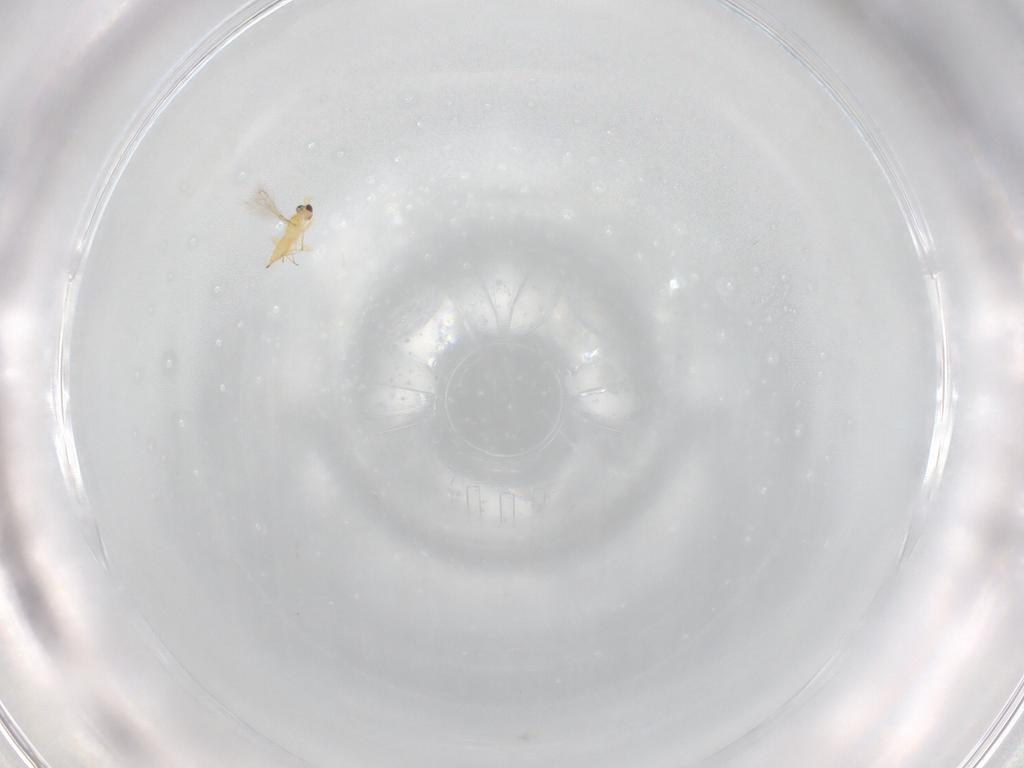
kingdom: Animalia
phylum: Arthropoda
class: Insecta
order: Hymenoptera
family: Mymaridae
